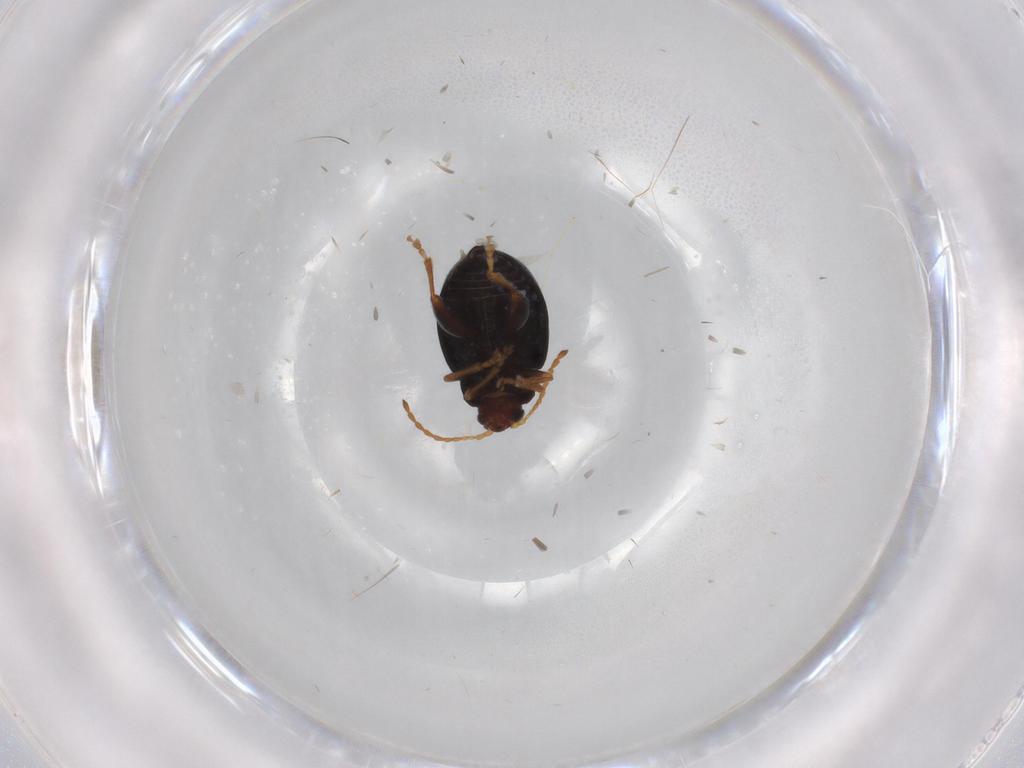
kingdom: Animalia
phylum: Arthropoda
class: Insecta
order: Coleoptera
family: Chrysomelidae
